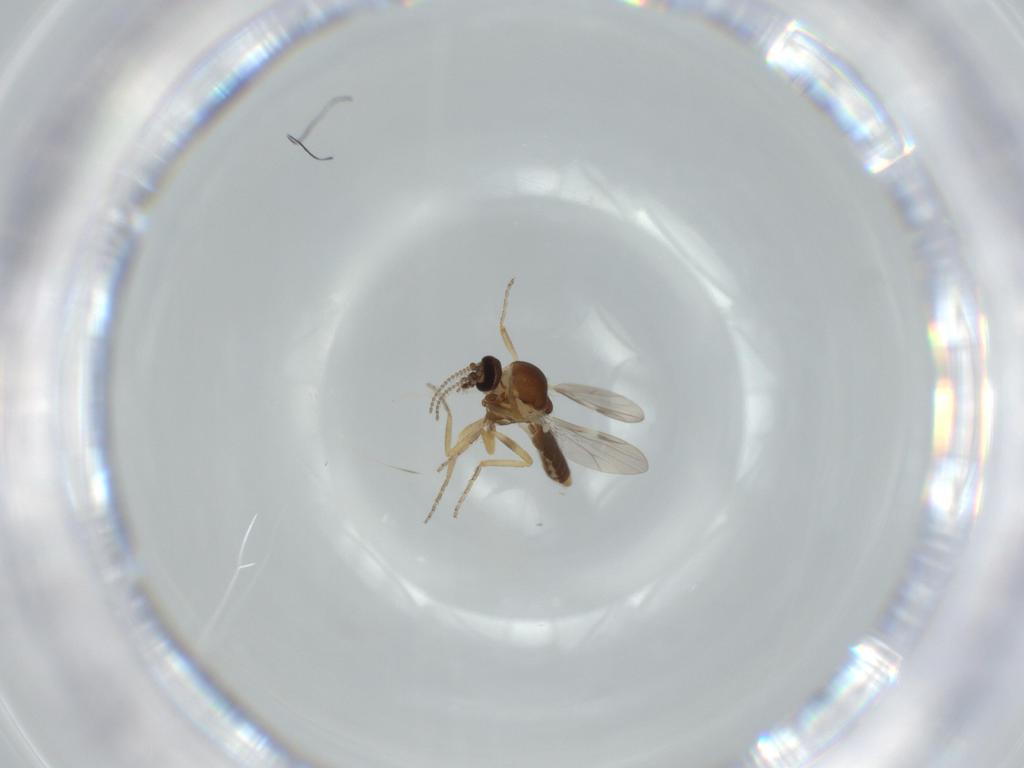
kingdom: Animalia
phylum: Arthropoda
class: Insecta
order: Diptera
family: Ceratopogonidae
